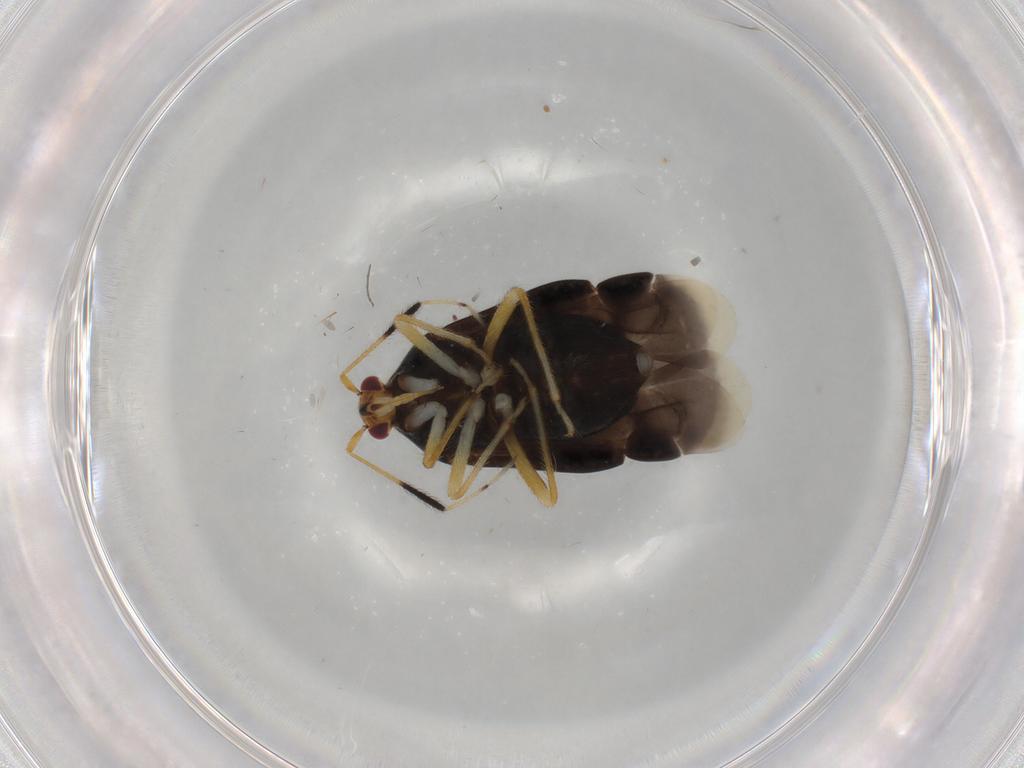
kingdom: Animalia
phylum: Arthropoda
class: Insecta
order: Hemiptera
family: Miridae
